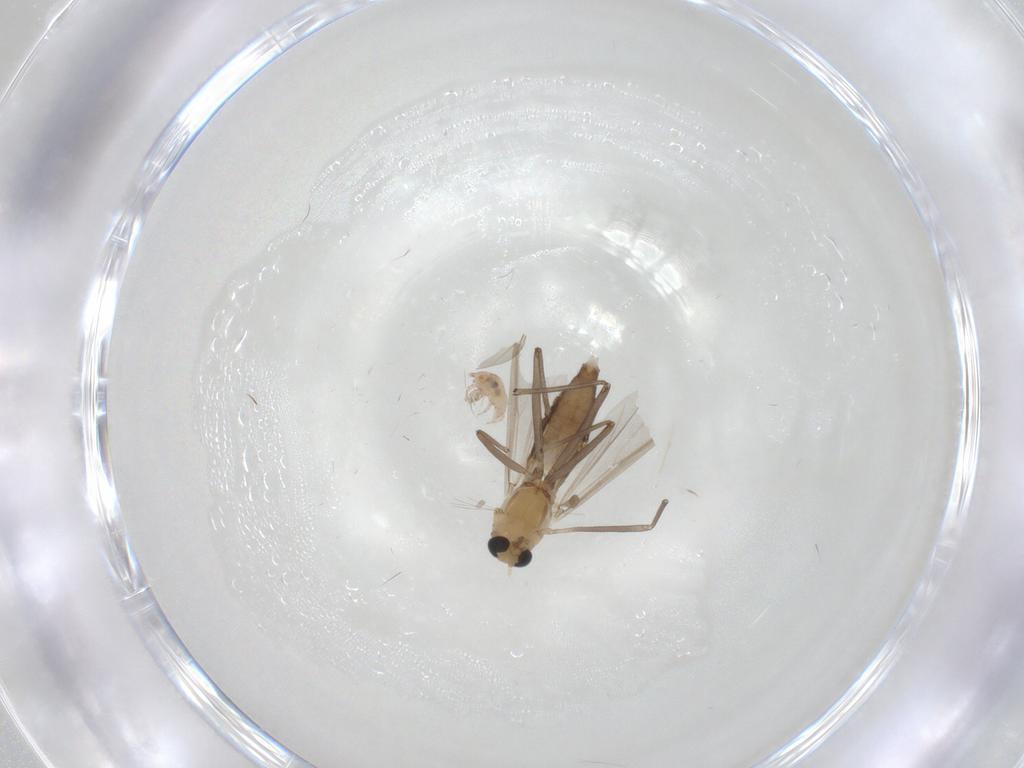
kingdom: Animalia
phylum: Arthropoda
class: Insecta
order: Diptera
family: Chironomidae
